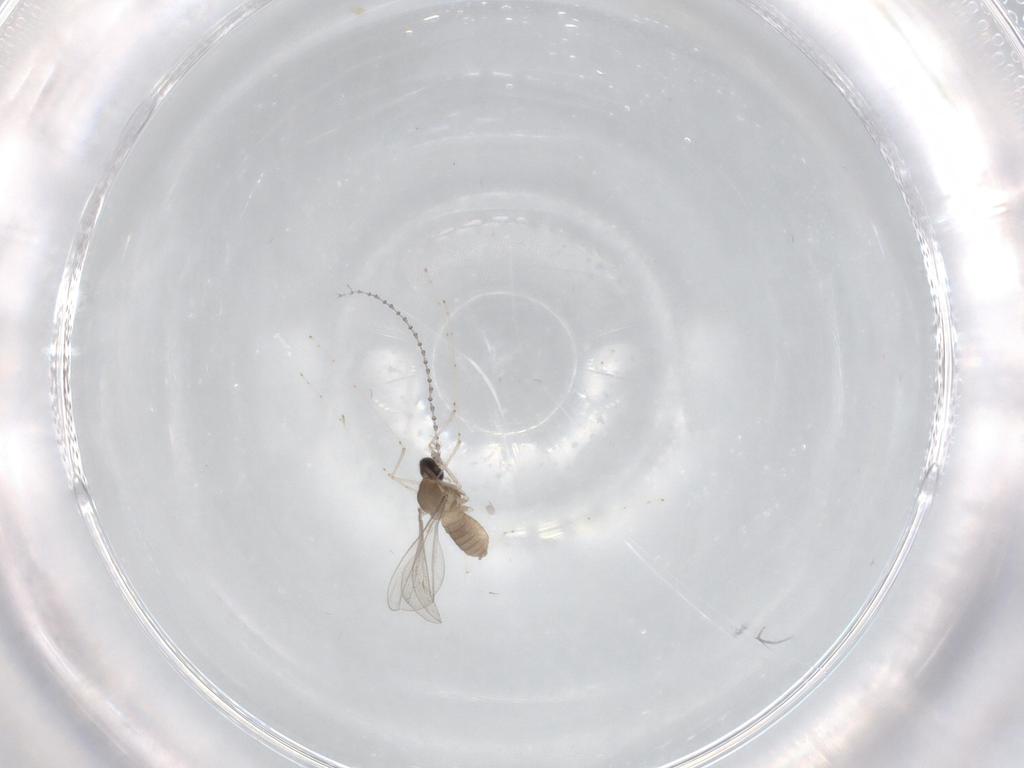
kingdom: Animalia
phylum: Arthropoda
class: Insecta
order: Diptera
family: Cecidomyiidae
